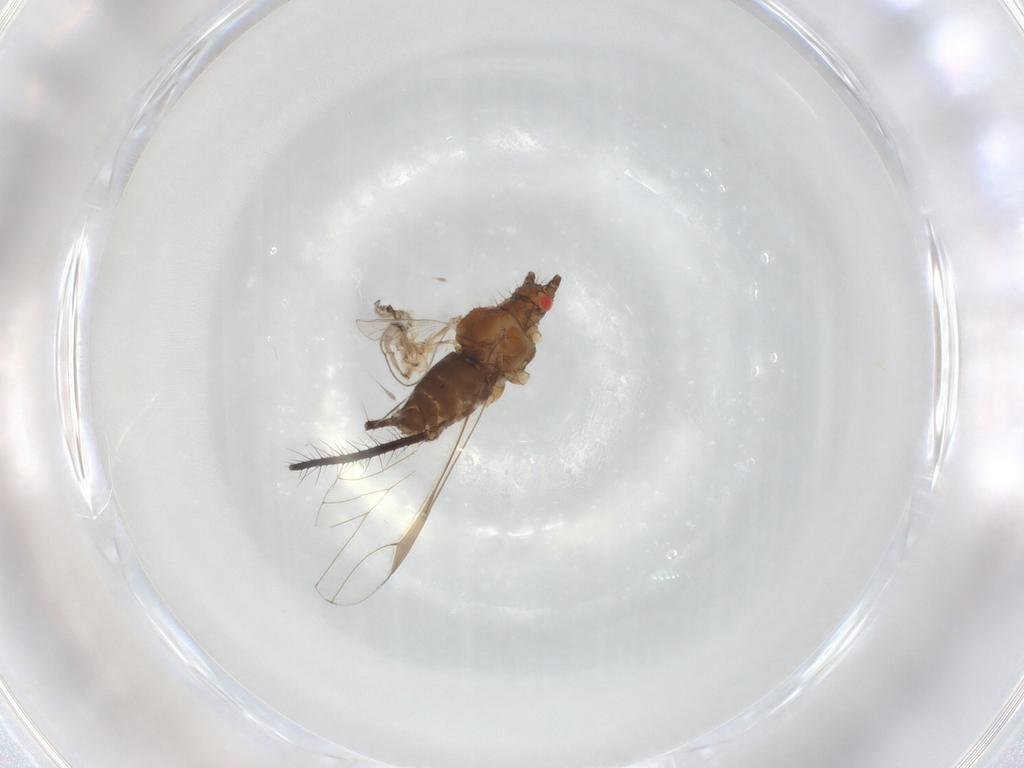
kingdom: Animalia
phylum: Arthropoda
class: Insecta
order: Hemiptera
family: Aphididae
